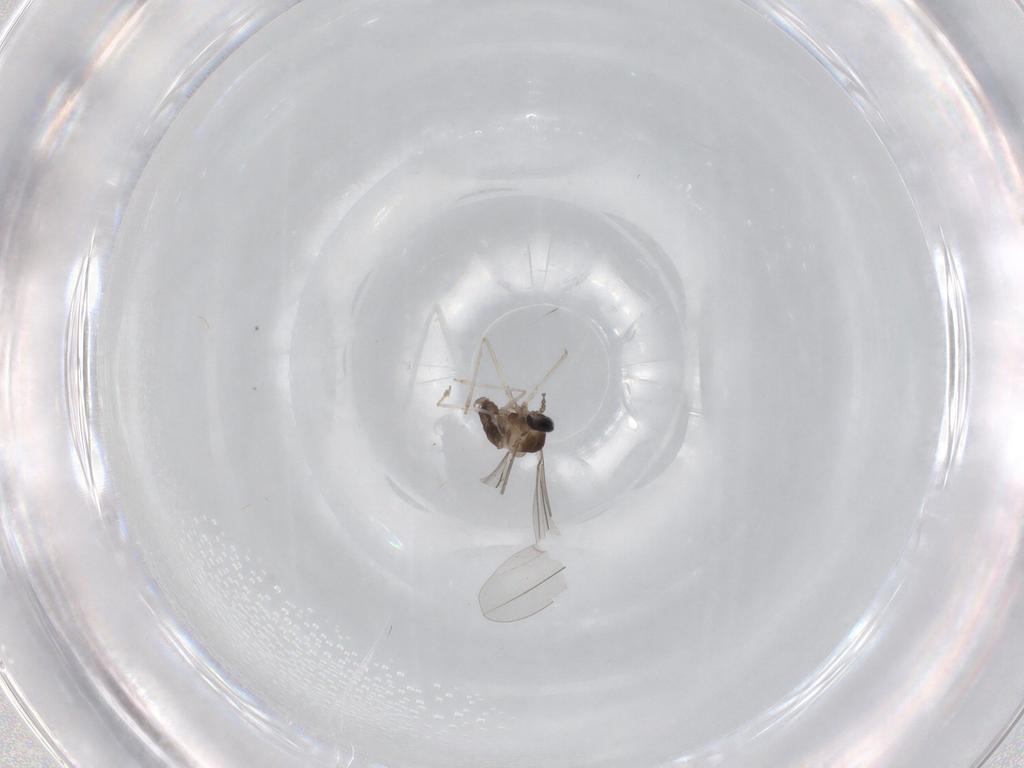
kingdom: Animalia
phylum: Arthropoda
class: Insecta
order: Diptera
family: Cecidomyiidae
